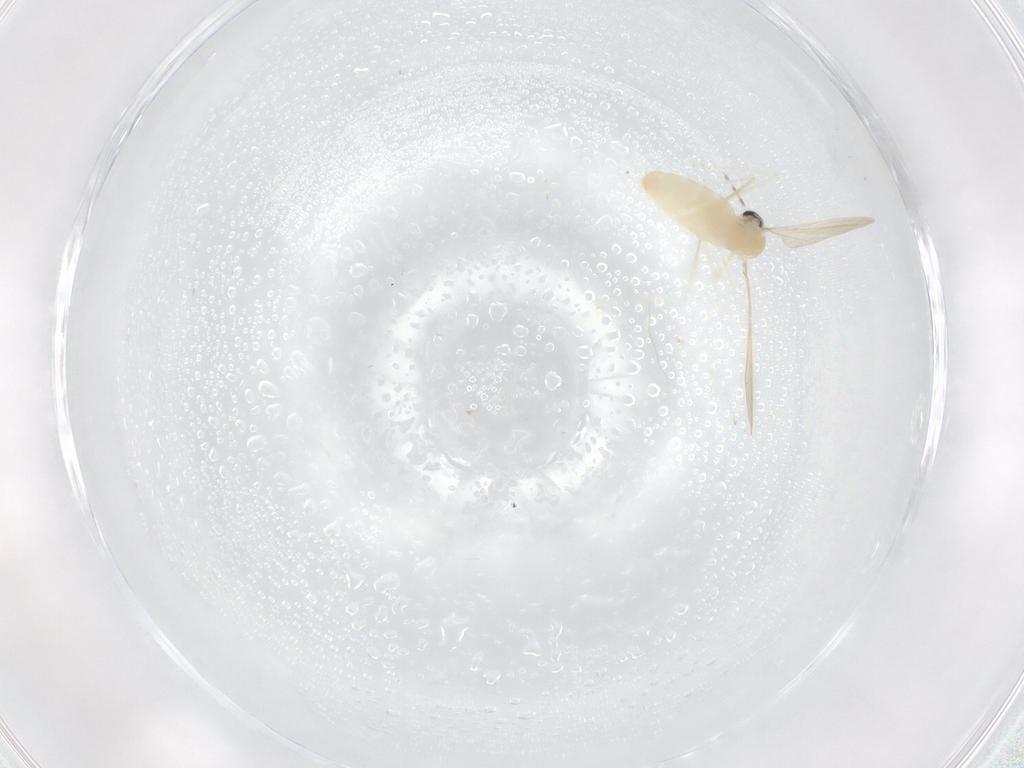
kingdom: Animalia
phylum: Arthropoda
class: Insecta
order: Diptera
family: Cecidomyiidae
